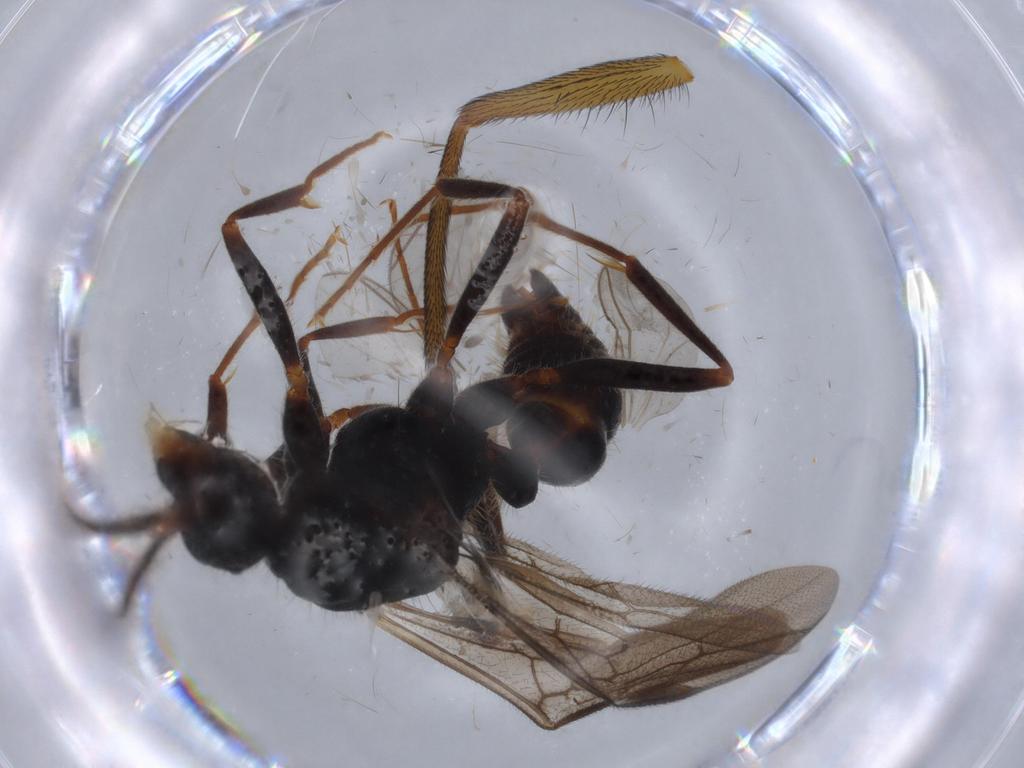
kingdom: Animalia
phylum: Arthropoda
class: Insecta
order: Hymenoptera
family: Formicidae
